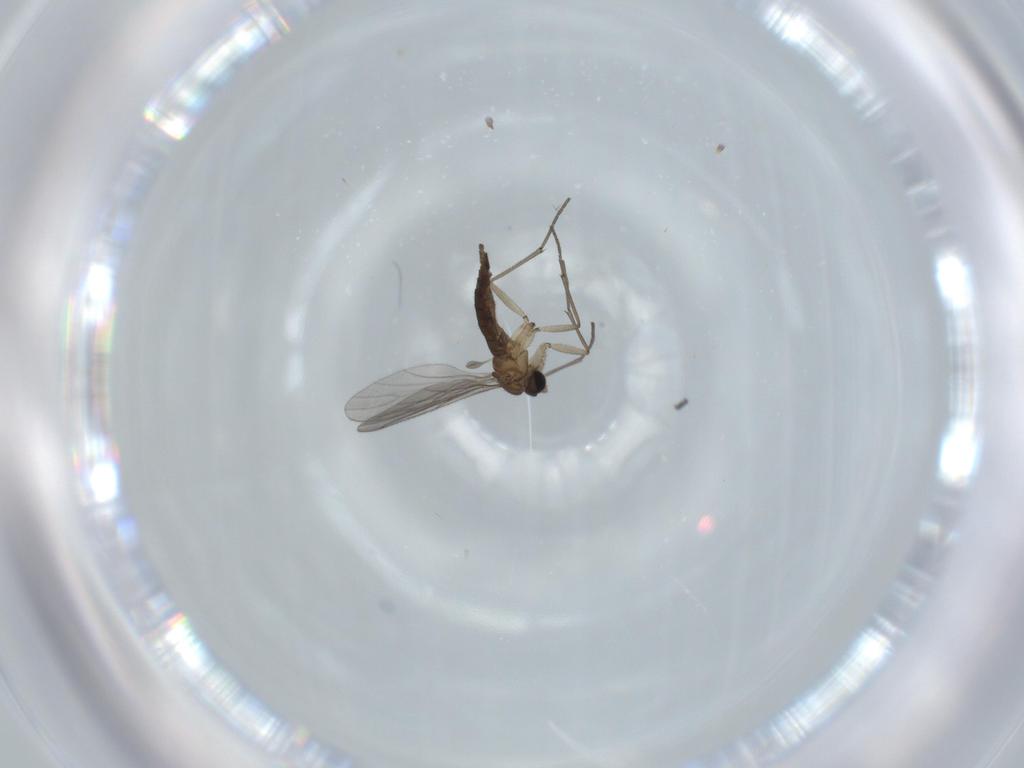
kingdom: Animalia
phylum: Arthropoda
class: Insecta
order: Diptera
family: Sciaridae
